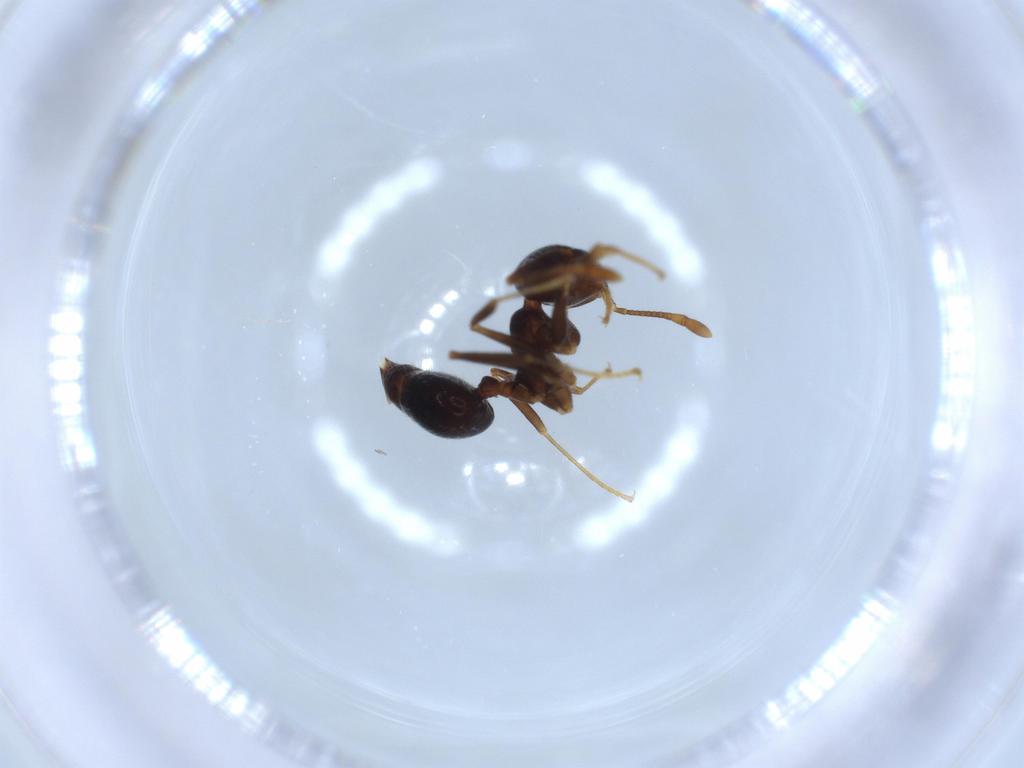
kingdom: Animalia
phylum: Arthropoda
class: Insecta
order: Hymenoptera
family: Formicidae
